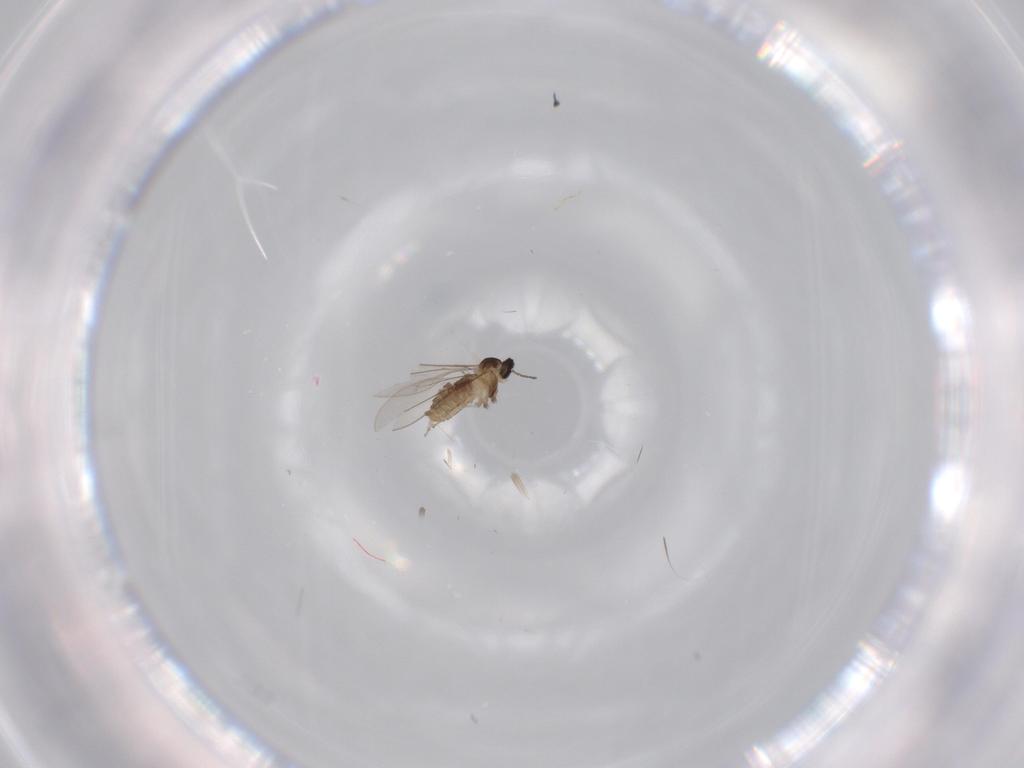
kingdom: Animalia
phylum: Arthropoda
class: Insecta
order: Diptera
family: Cecidomyiidae
